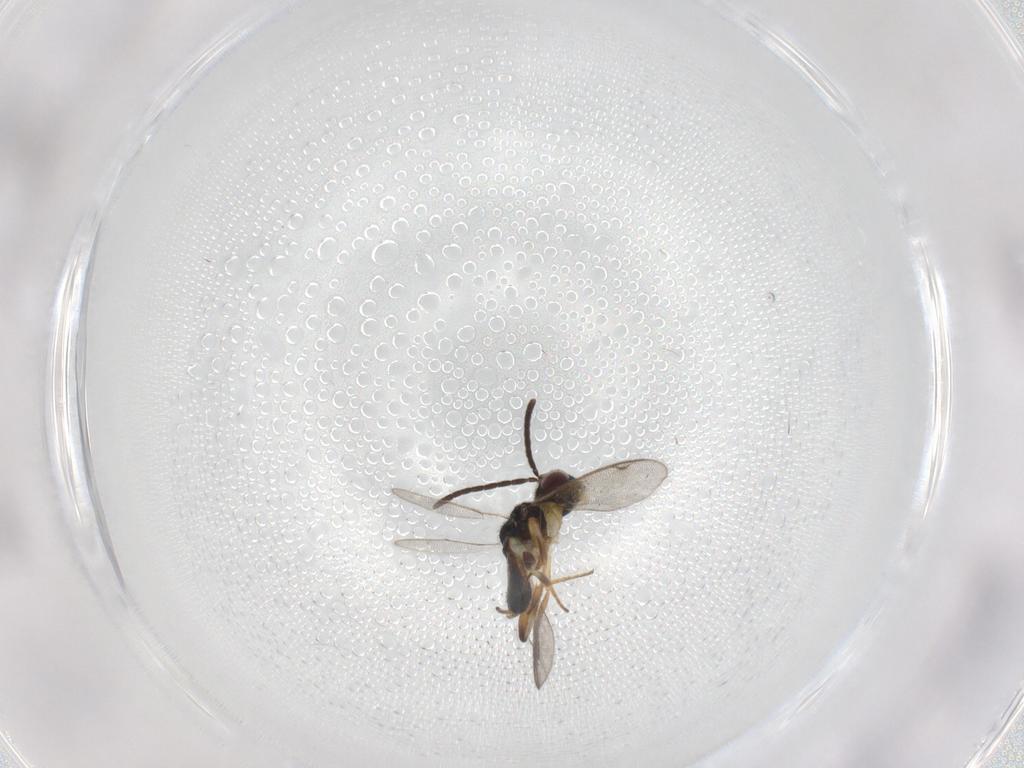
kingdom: Animalia
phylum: Arthropoda
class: Insecta
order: Hymenoptera
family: Eupelmidae
